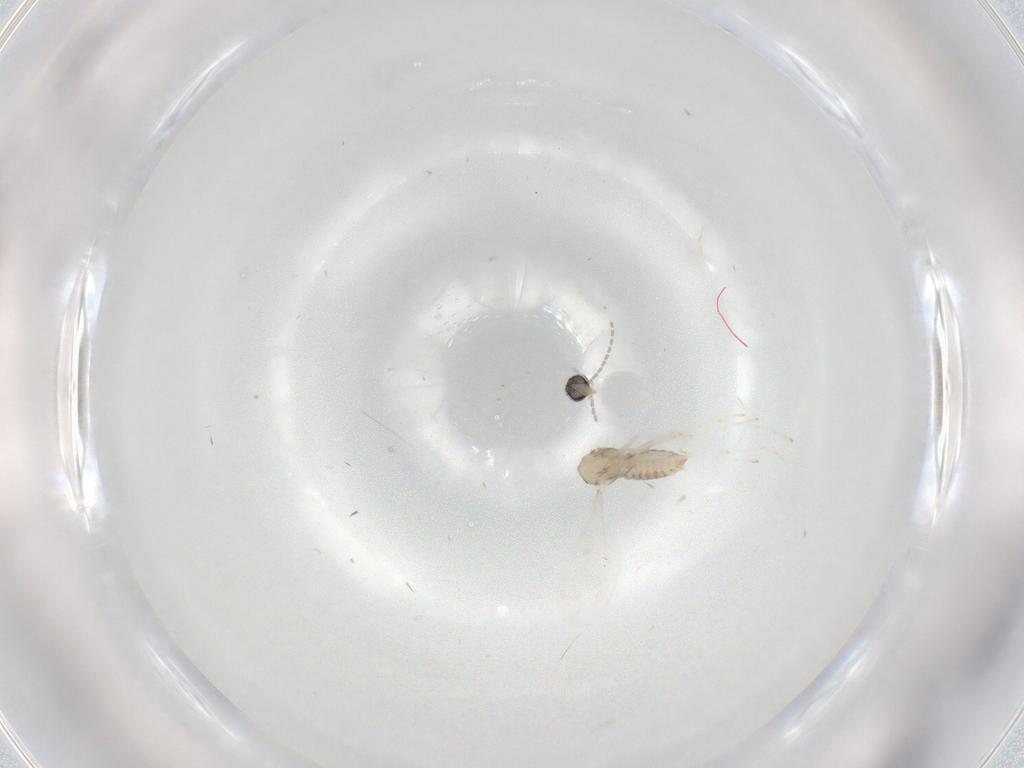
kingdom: Animalia
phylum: Arthropoda
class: Insecta
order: Diptera
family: Cecidomyiidae
